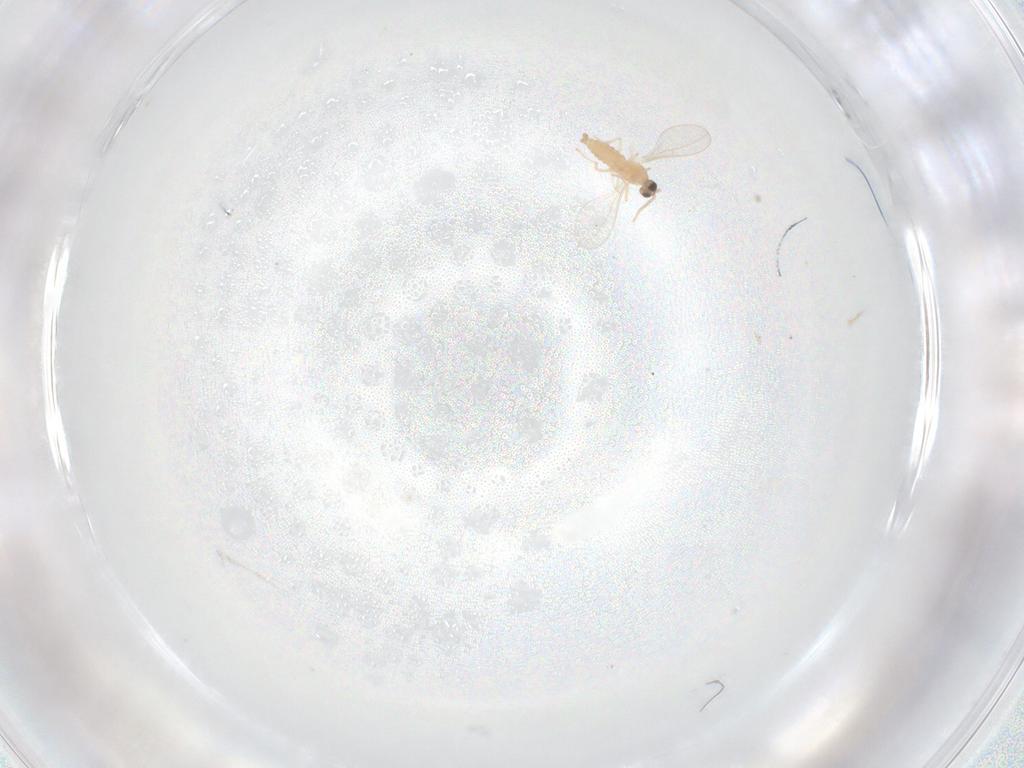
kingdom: Animalia
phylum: Arthropoda
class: Insecta
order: Diptera
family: Cecidomyiidae
